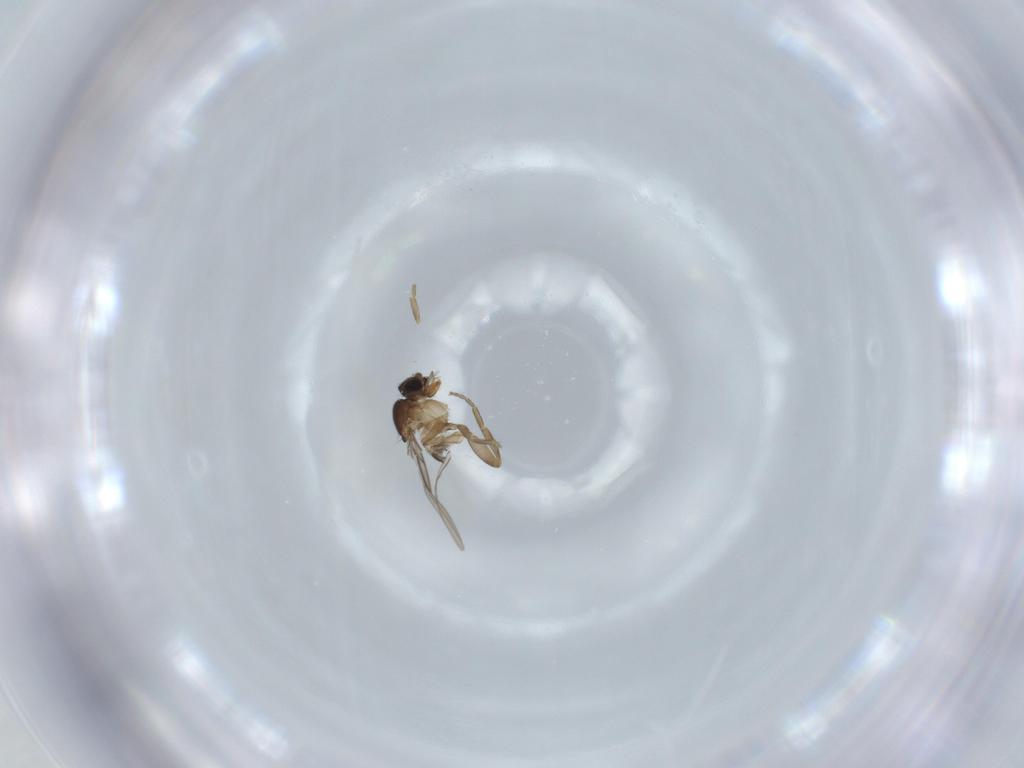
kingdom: Animalia
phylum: Arthropoda
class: Insecta
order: Diptera
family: Phoridae
